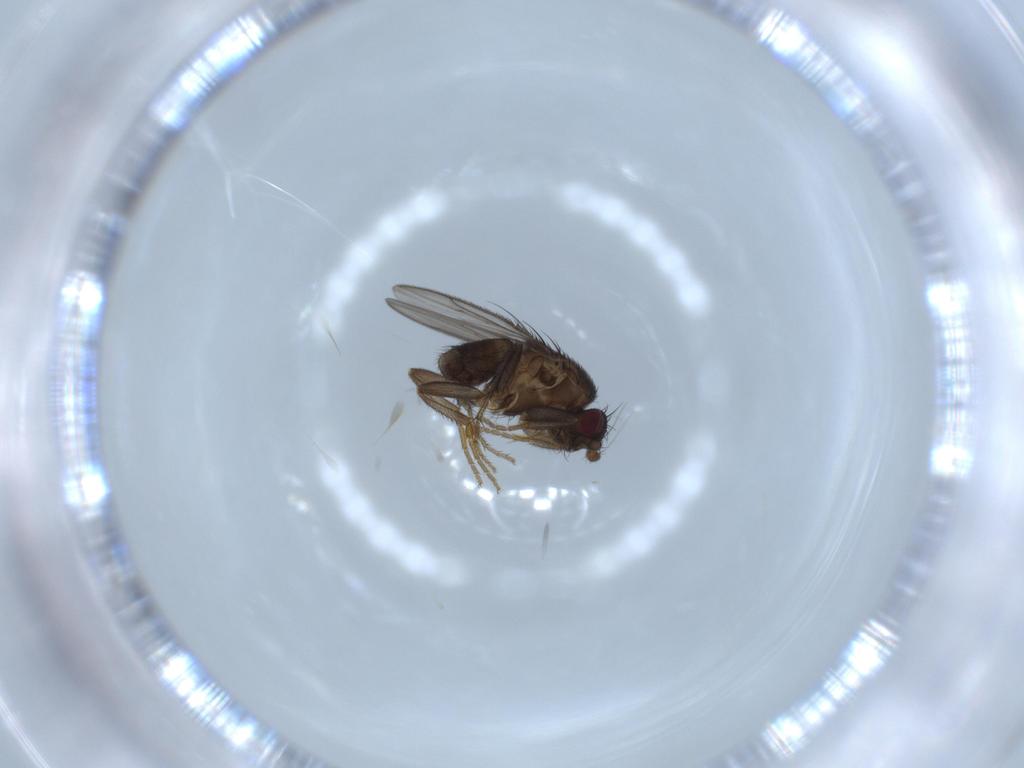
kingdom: Animalia
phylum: Arthropoda
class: Insecta
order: Diptera
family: Sphaeroceridae
